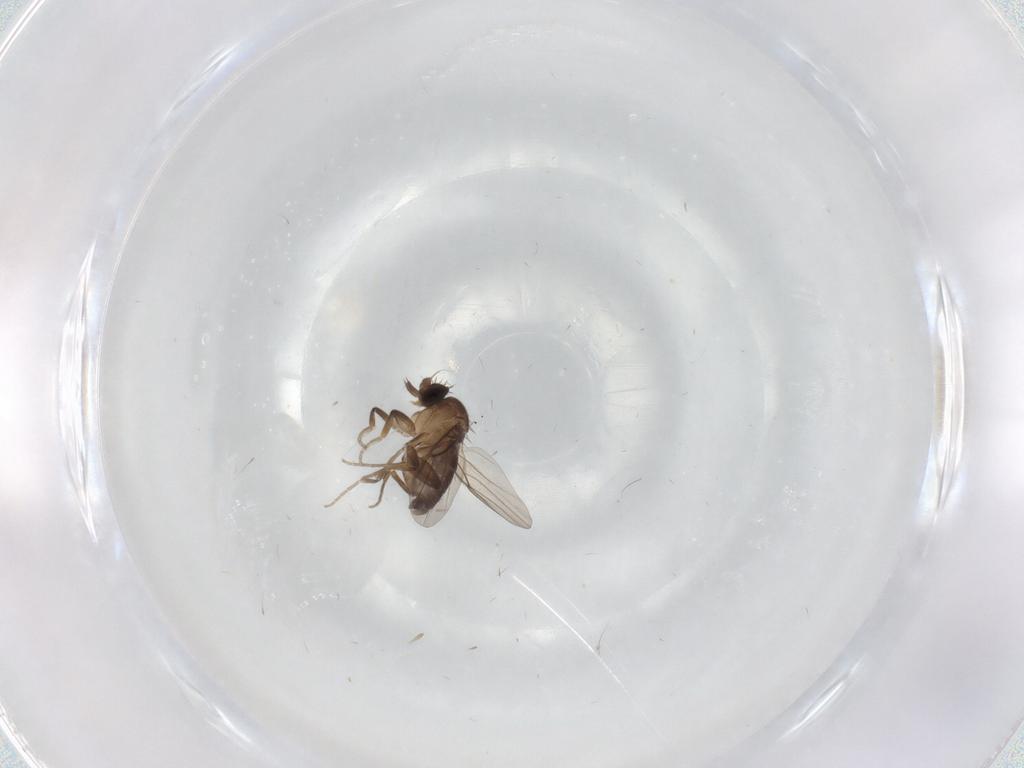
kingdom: Animalia
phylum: Arthropoda
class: Insecta
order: Diptera
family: Phoridae
